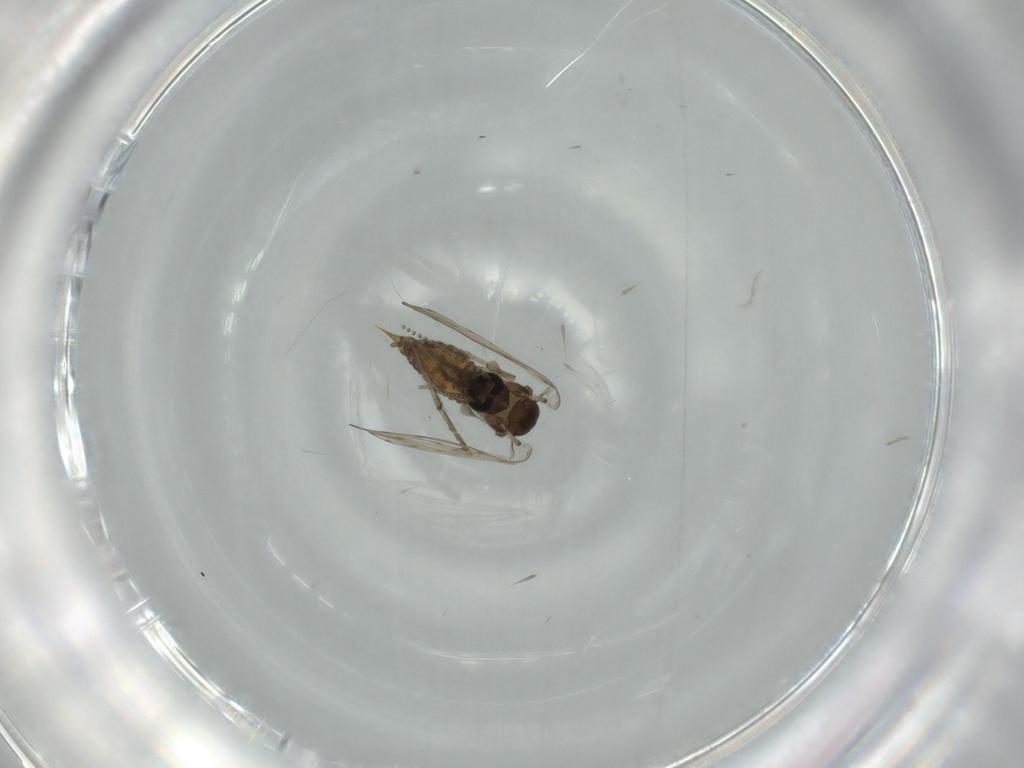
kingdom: Animalia
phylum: Arthropoda
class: Insecta
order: Diptera
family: Psychodidae
